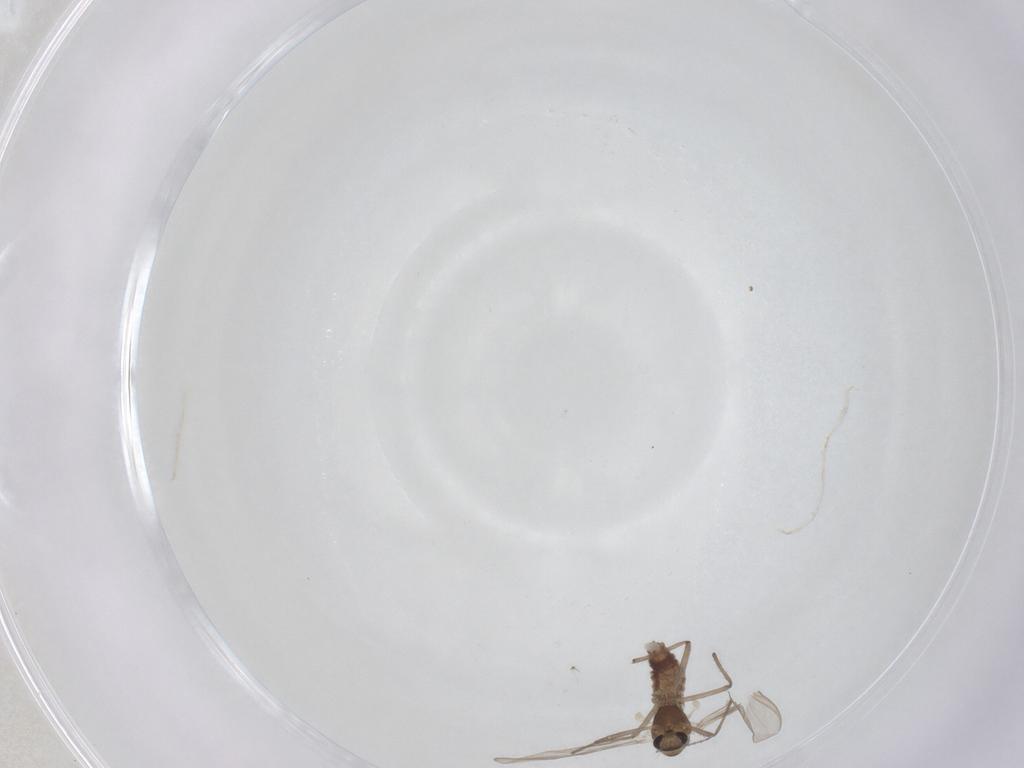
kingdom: Animalia
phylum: Arthropoda
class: Insecta
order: Diptera
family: Chironomidae
